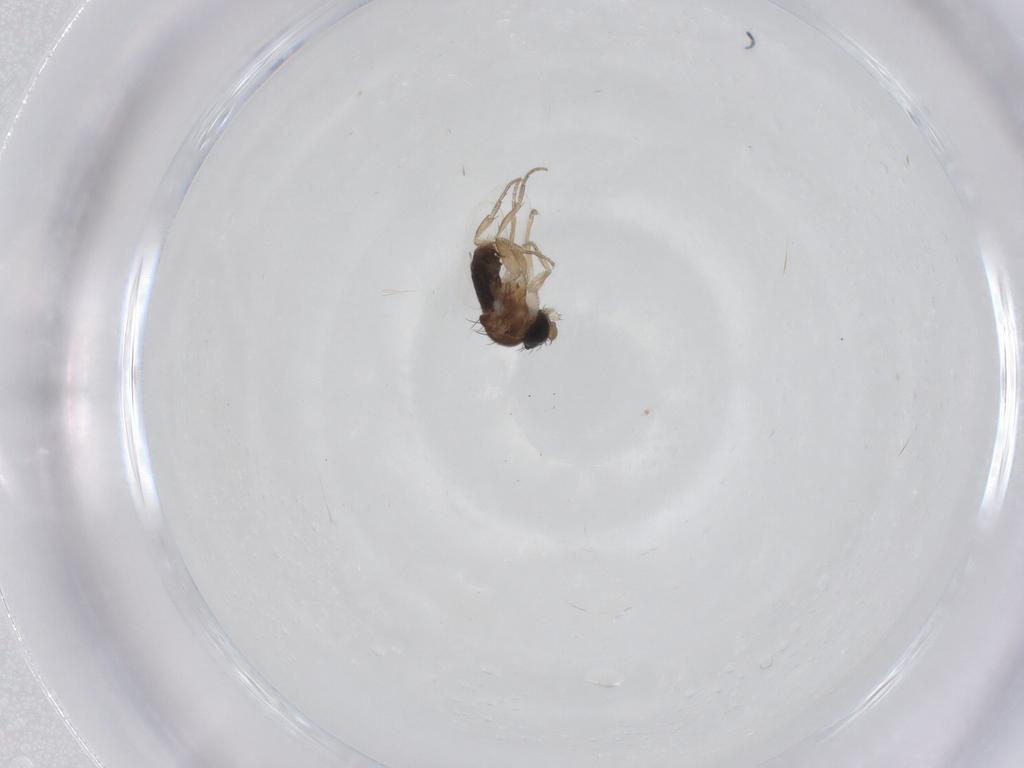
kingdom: Animalia
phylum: Arthropoda
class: Insecta
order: Diptera
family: Phoridae
